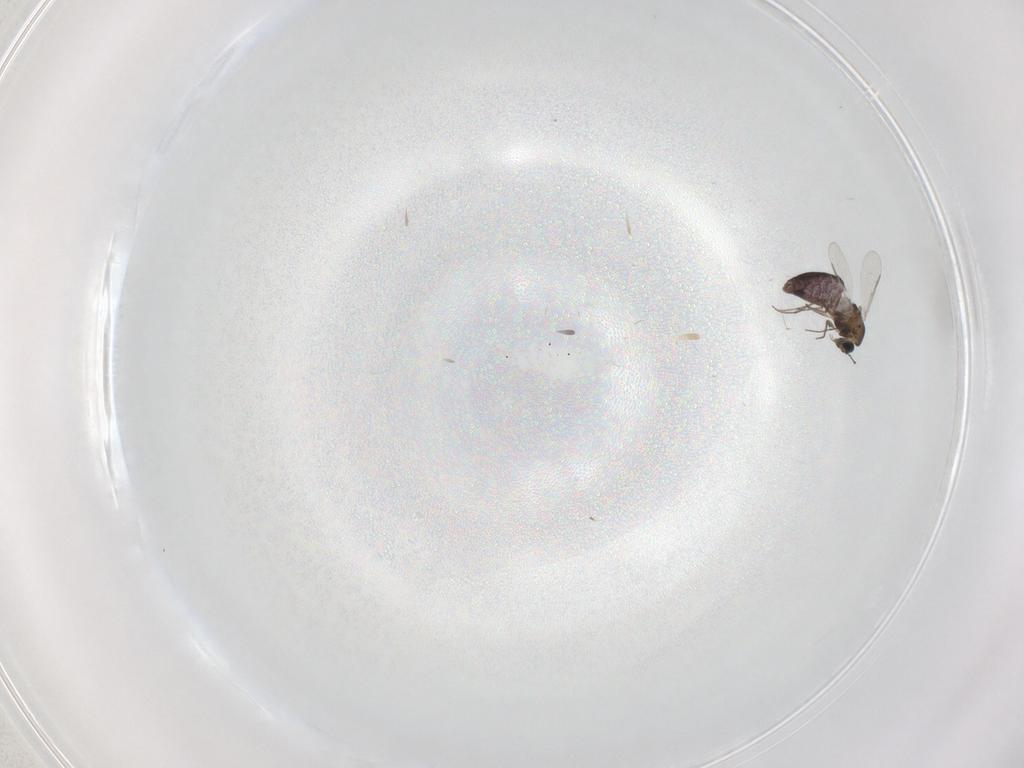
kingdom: Animalia
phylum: Arthropoda
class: Insecta
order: Diptera
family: Chironomidae
